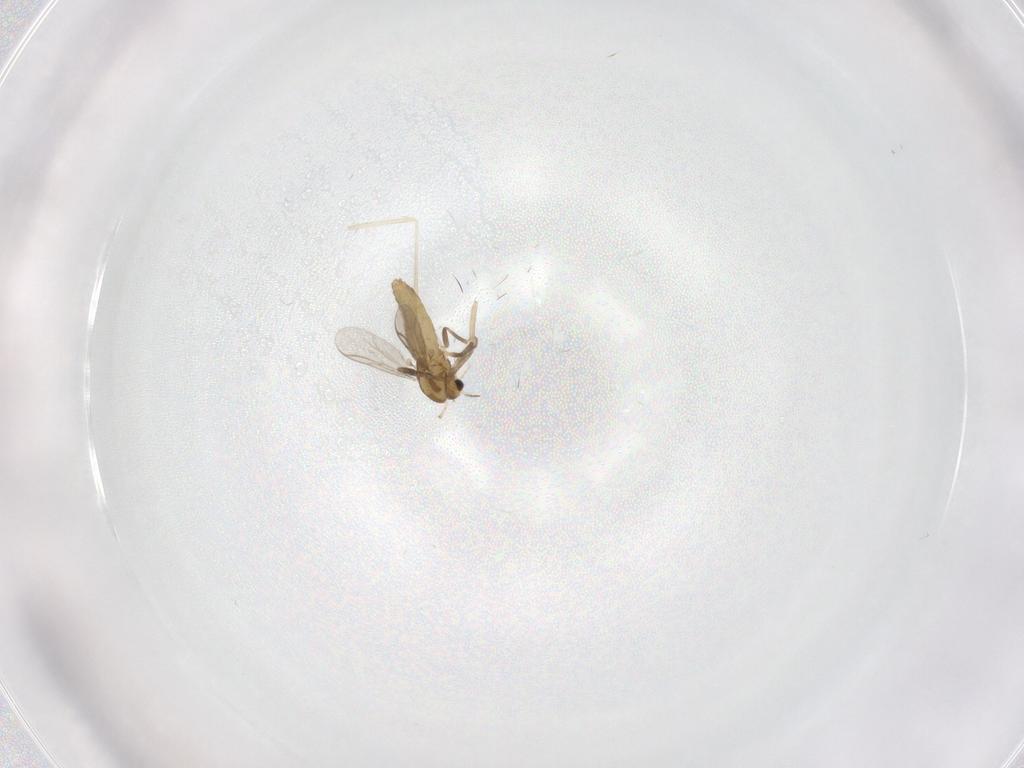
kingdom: Animalia
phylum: Arthropoda
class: Insecta
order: Diptera
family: Chironomidae
